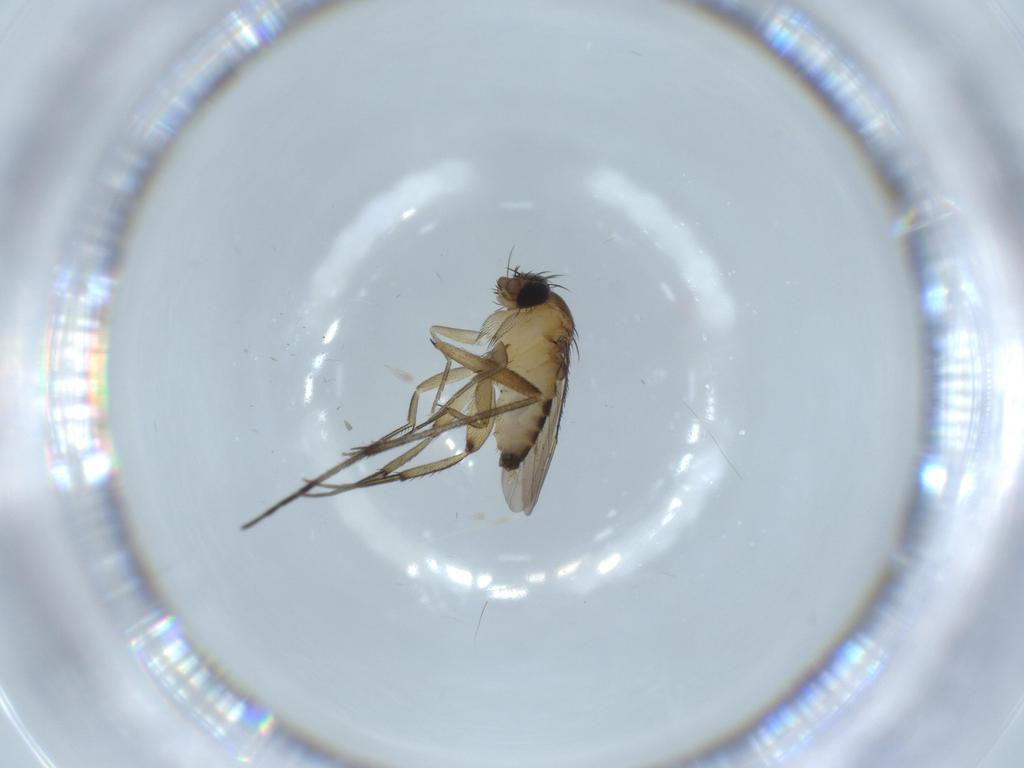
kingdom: Animalia
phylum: Arthropoda
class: Insecta
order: Diptera
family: Phoridae
